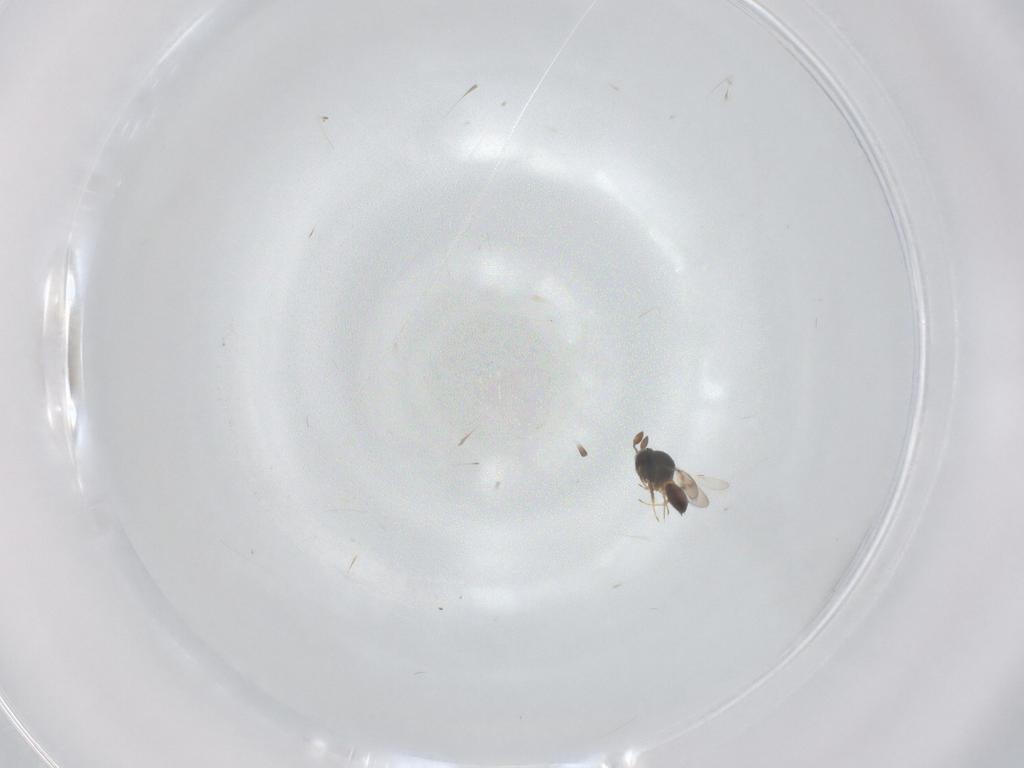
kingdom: Animalia
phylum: Arthropoda
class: Insecta
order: Hymenoptera
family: Scelionidae
